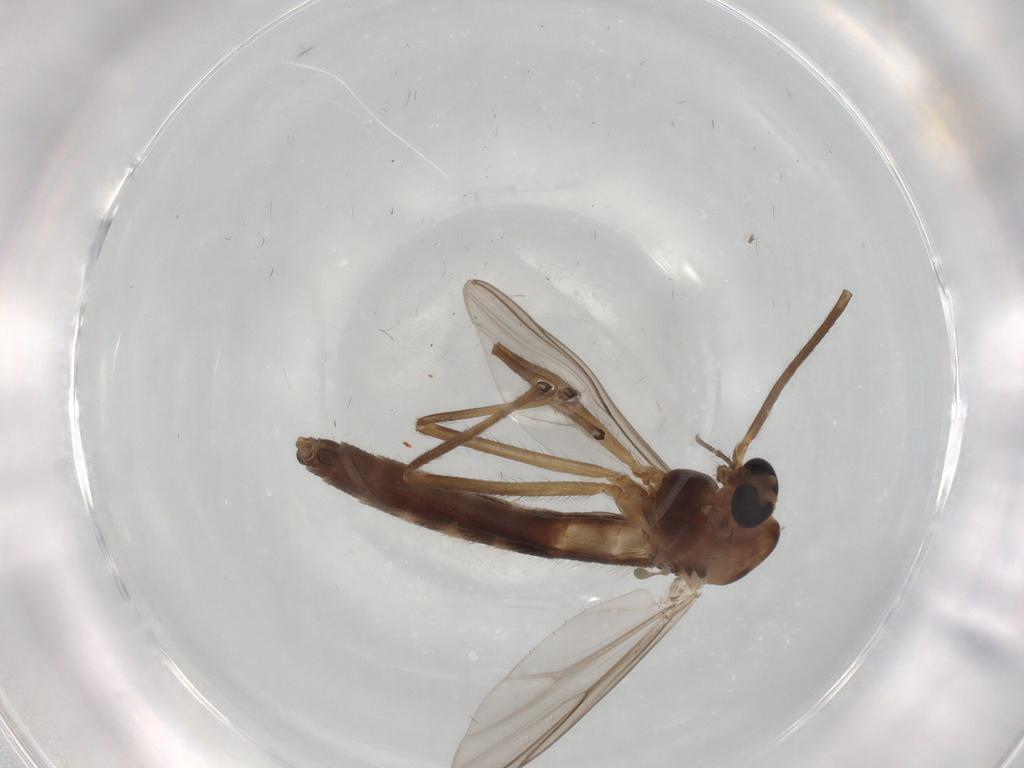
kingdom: Animalia
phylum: Arthropoda
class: Insecta
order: Diptera
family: Chironomidae
